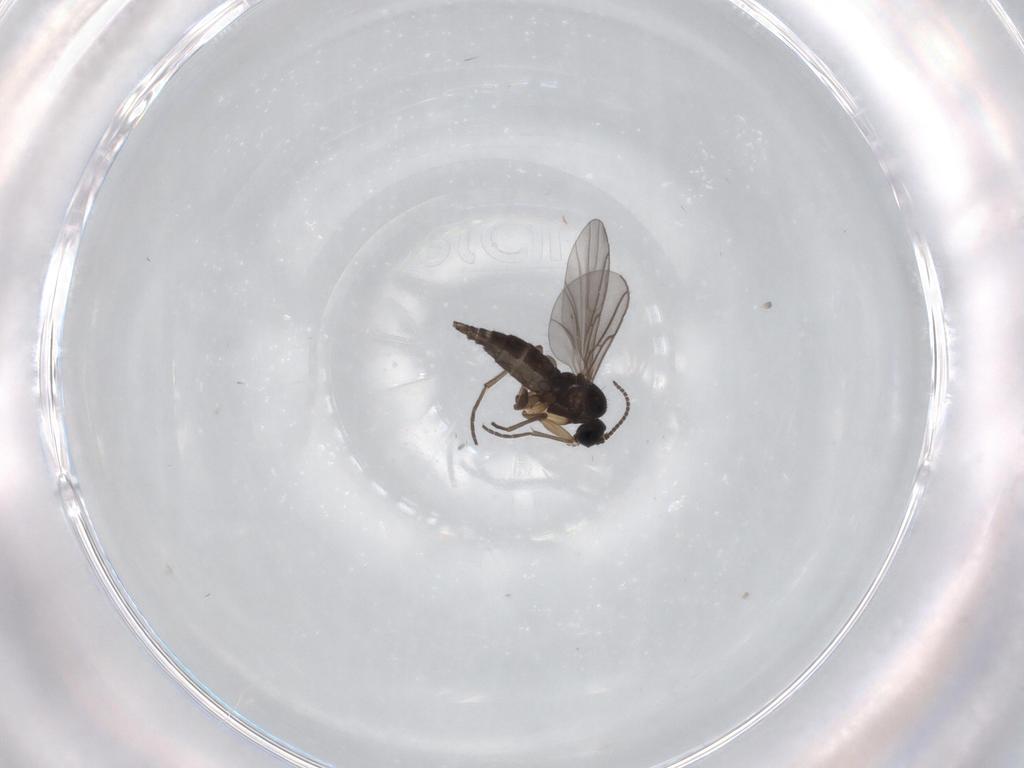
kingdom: Animalia
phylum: Arthropoda
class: Insecta
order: Diptera
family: Sciaridae
